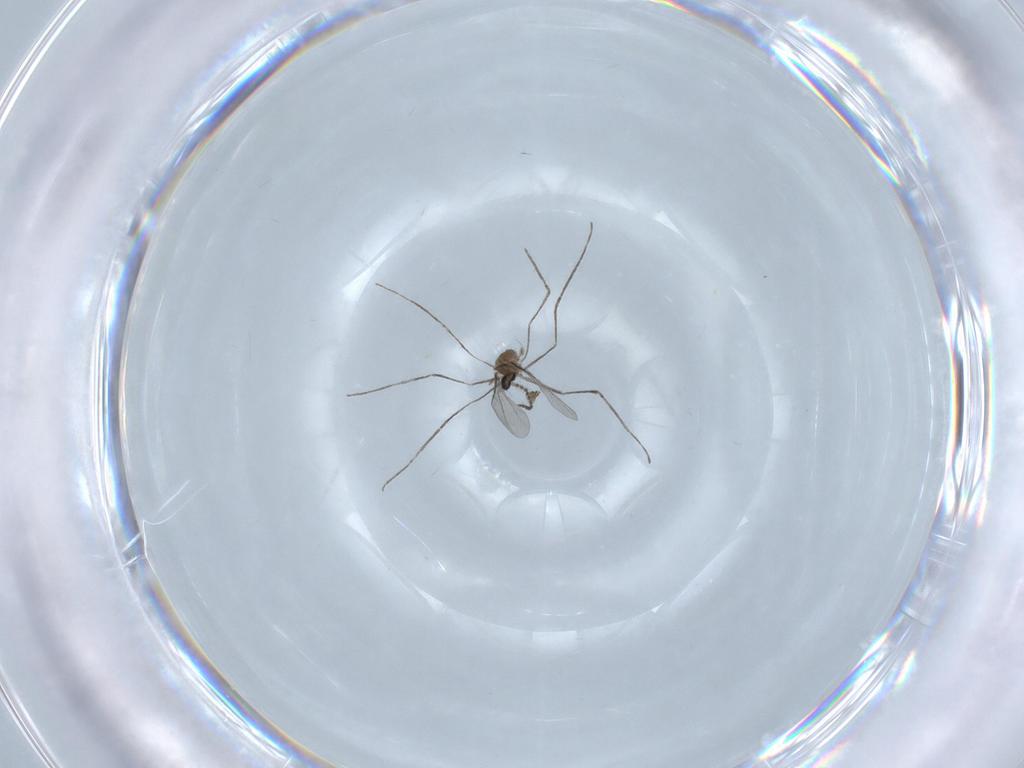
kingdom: Animalia
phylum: Arthropoda
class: Insecta
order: Diptera
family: Cecidomyiidae
